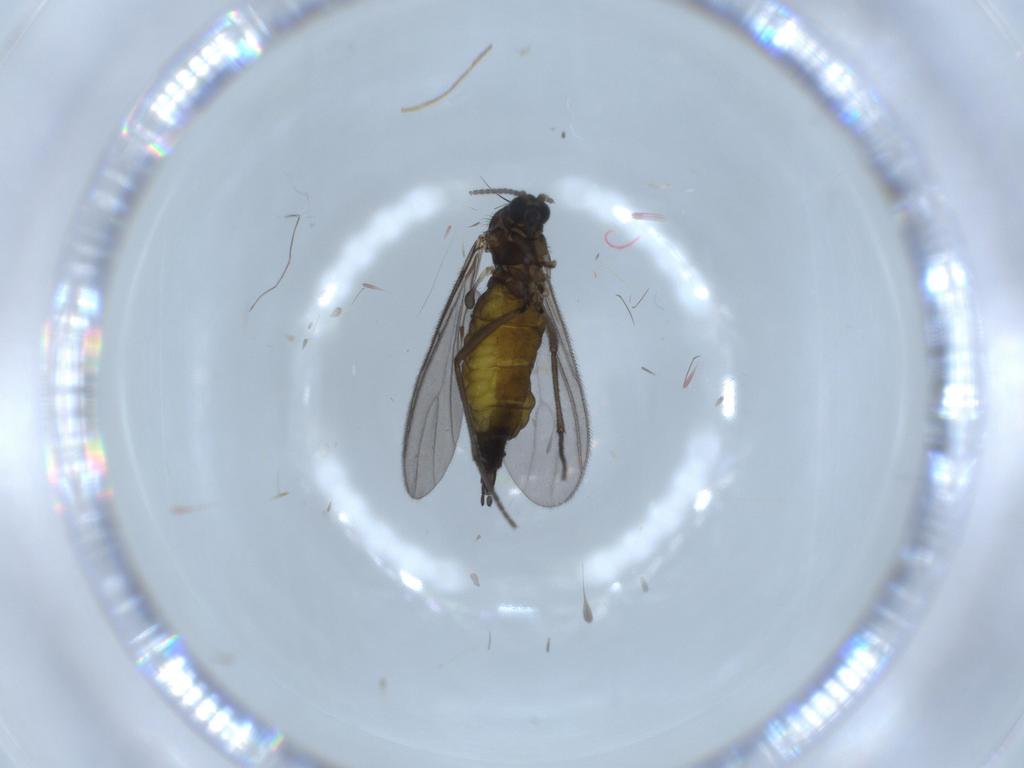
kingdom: Animalia
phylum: Arthropoda
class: Insecta
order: Diptera
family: Sciaridae
